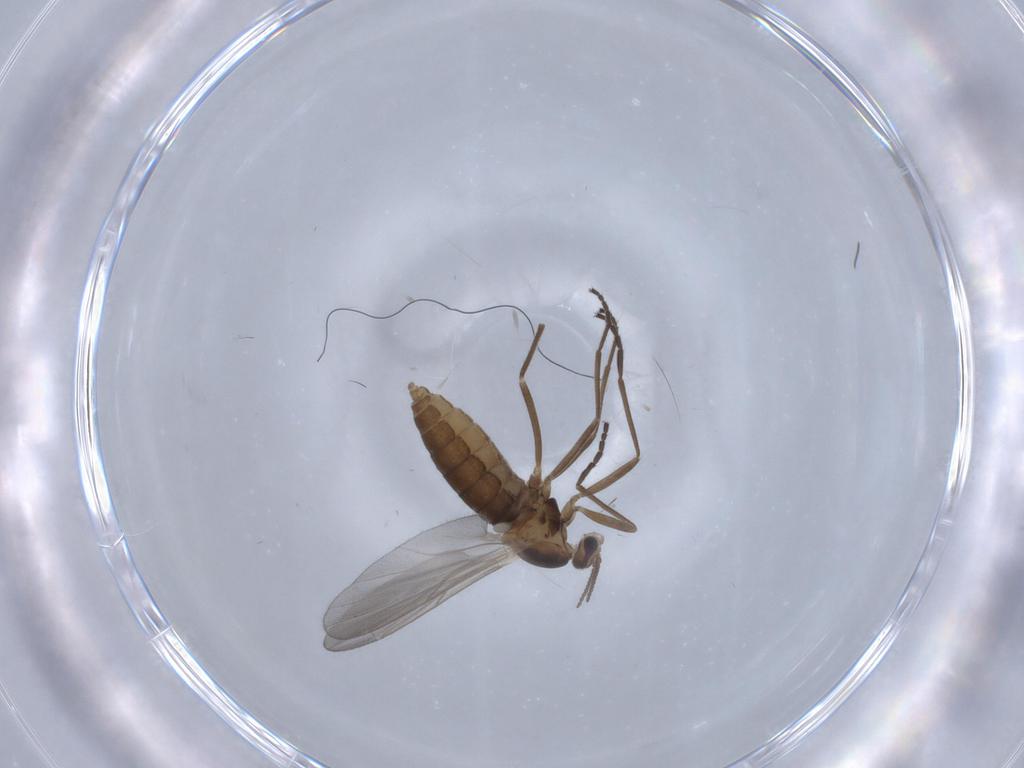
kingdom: Animalia
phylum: Arthropoda
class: Insecta
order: Diptera
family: Cecidomyiidae
